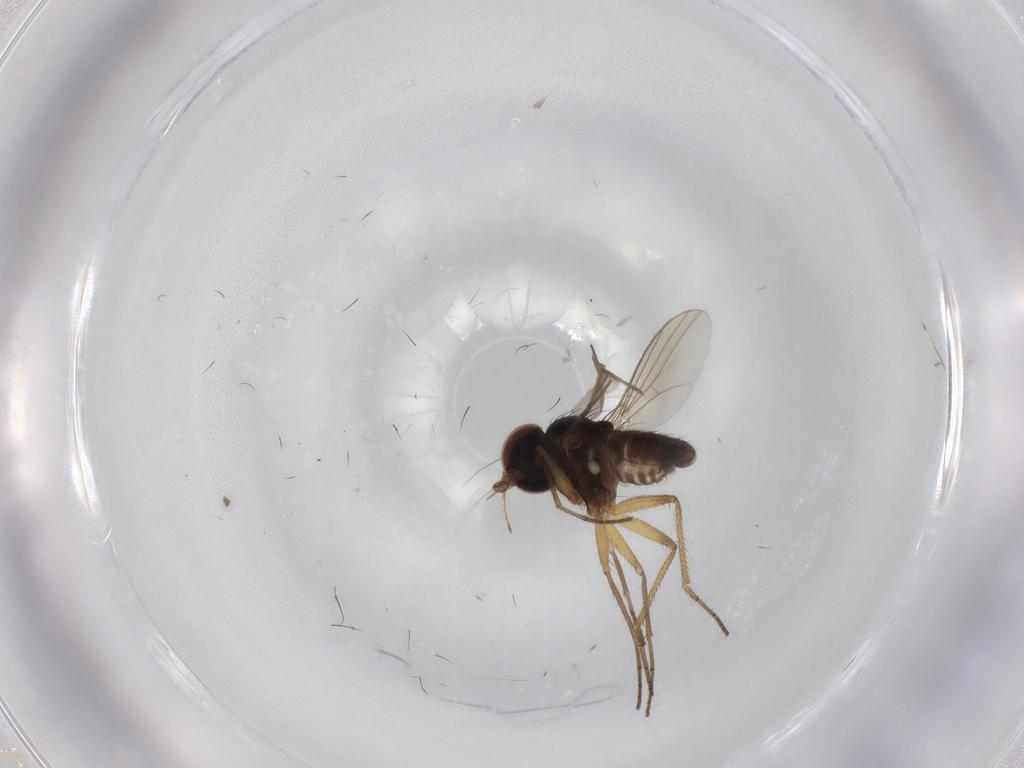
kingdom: Animalia
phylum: Arthropoda
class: Insecta
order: Diptera
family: Dolichopodidae
